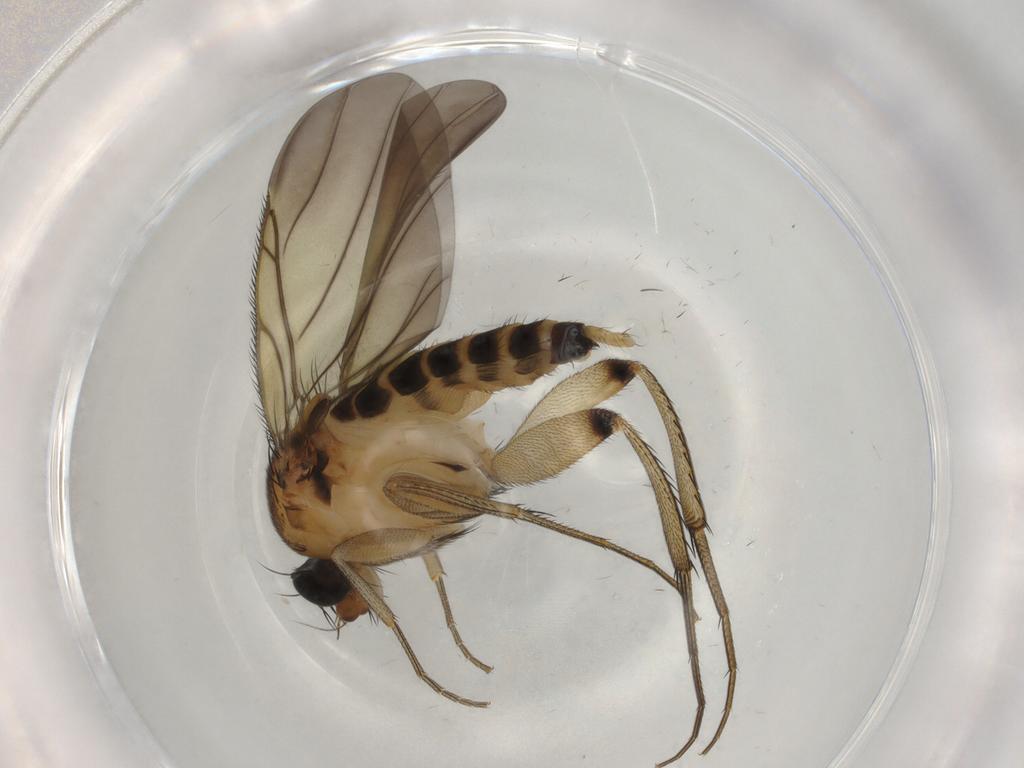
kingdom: Animalia
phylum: Arthropoda
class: Insecta
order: Diptera
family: Chironomidae
